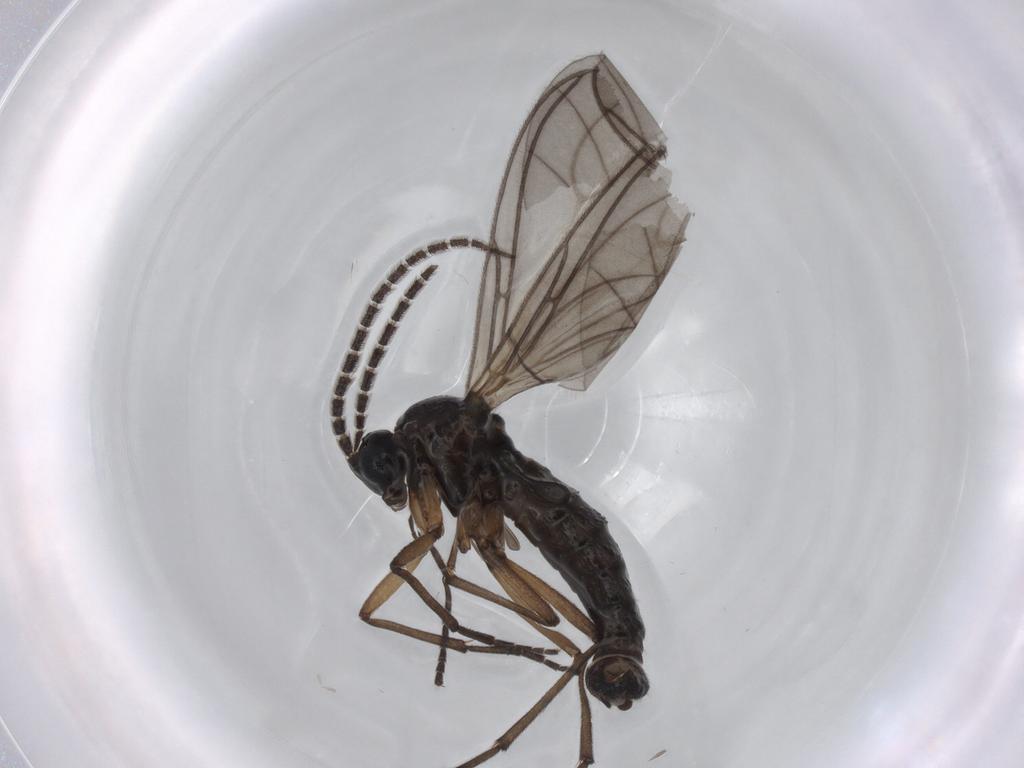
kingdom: Animalia
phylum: Arthropoda
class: Insecta
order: Diptera
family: Sciaridae
